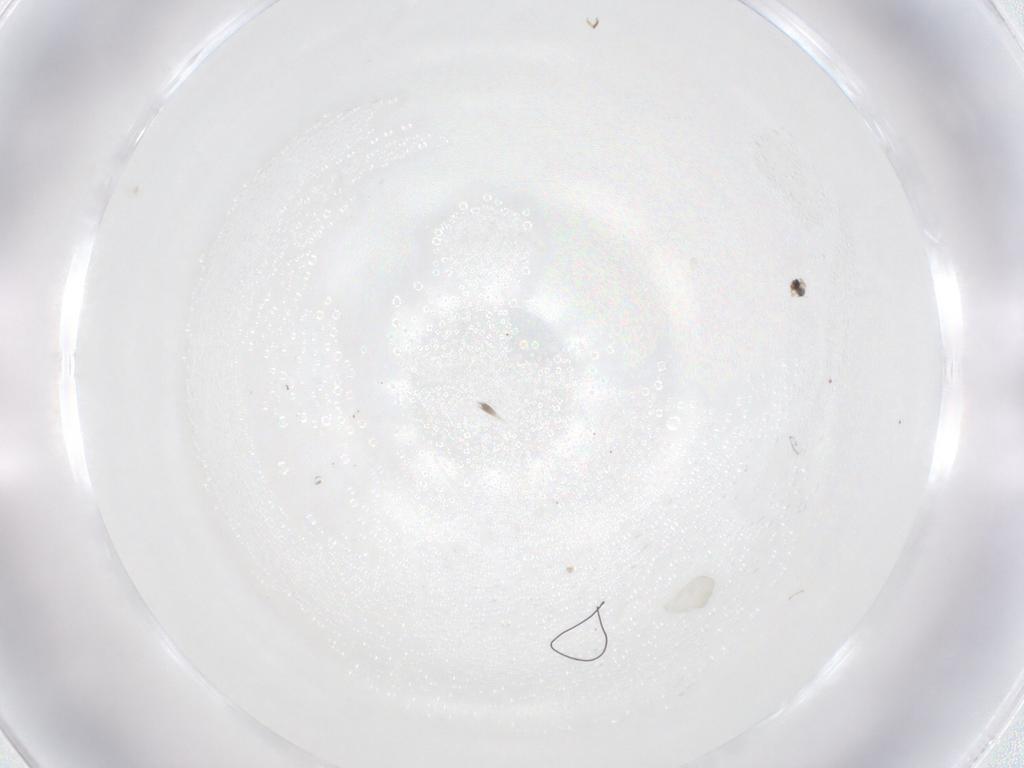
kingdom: Animalia
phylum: Arthropoda
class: Insecta
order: Diptera
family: Cecidomyiidae
